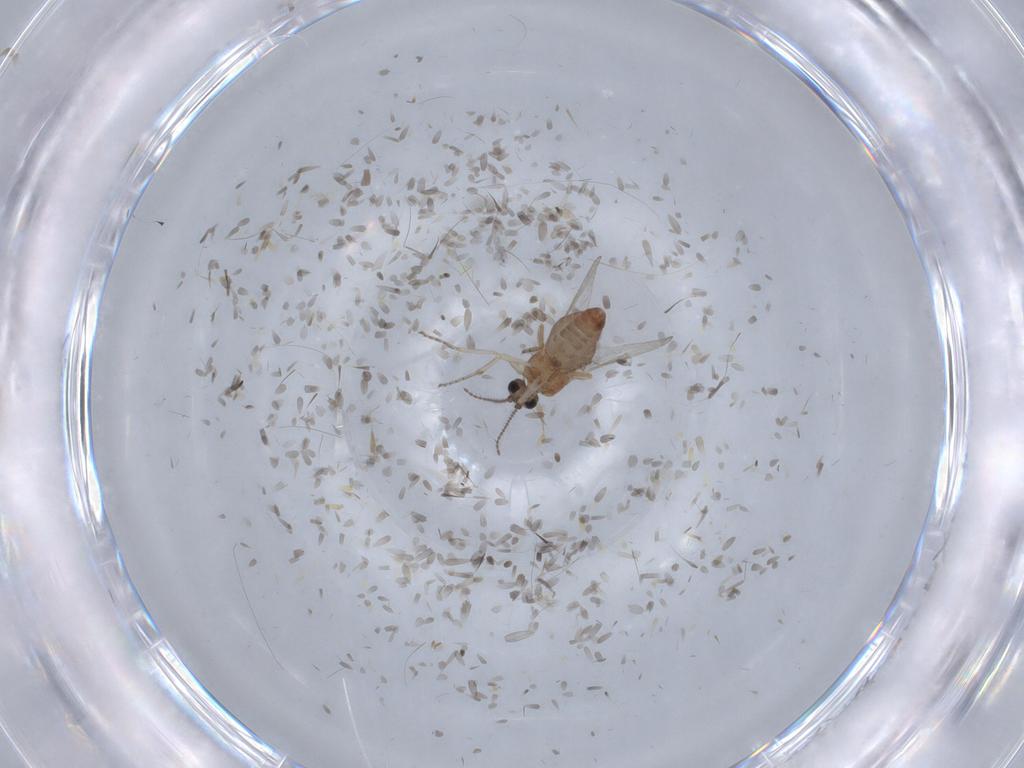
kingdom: Animalia
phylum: Arthropoda
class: Insecta
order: Diptera
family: Ceratopogonidae
